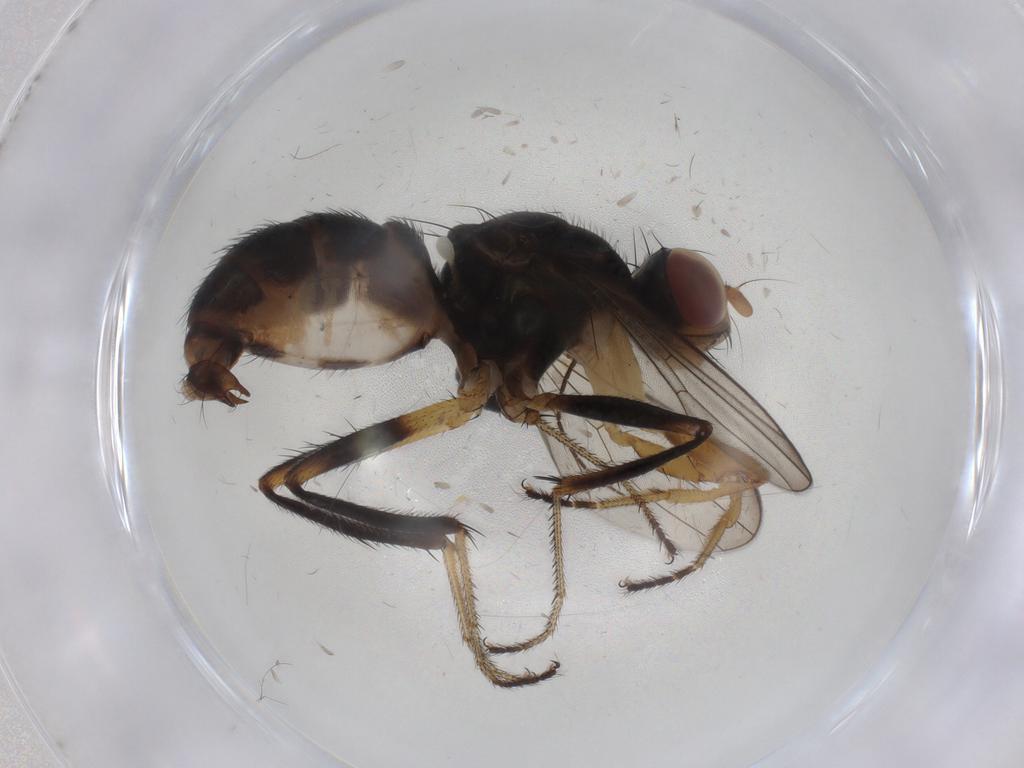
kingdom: Animalia
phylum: Arthropoda
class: Insecta
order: Diptera
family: Sepsidae
